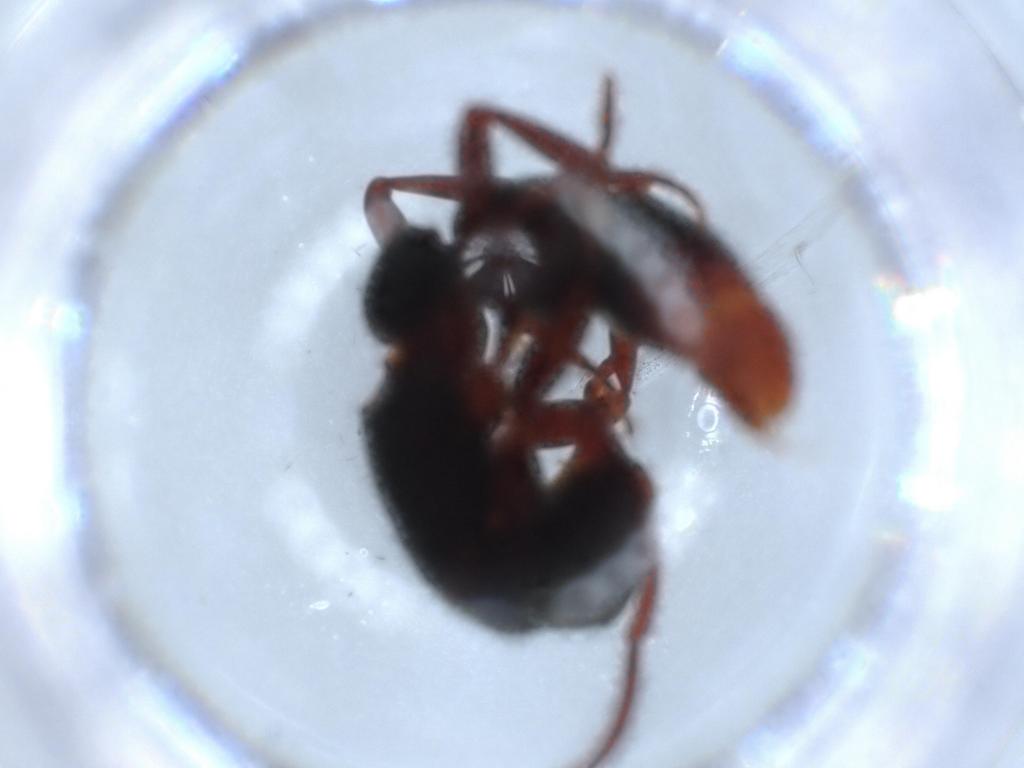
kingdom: Animalia
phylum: Arthropoda
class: Insecta
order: Hymenoptera
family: Formicidae
